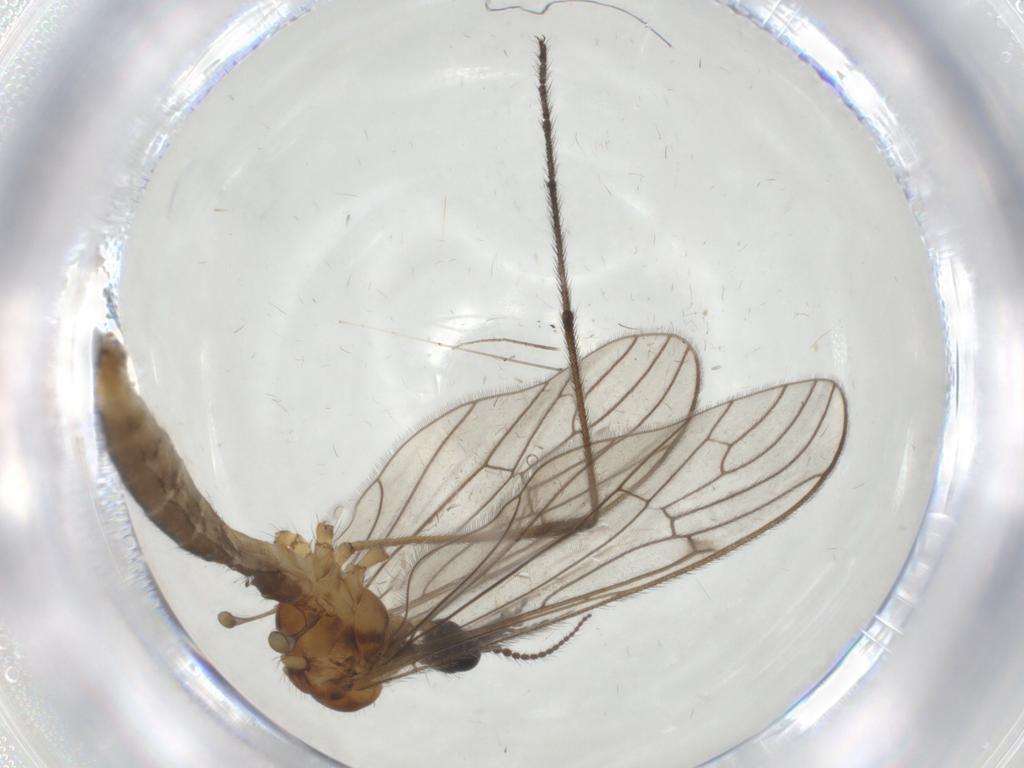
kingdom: Animalia
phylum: Arthropoda
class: Insecta
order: Diptera
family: Ceratopogonidae
